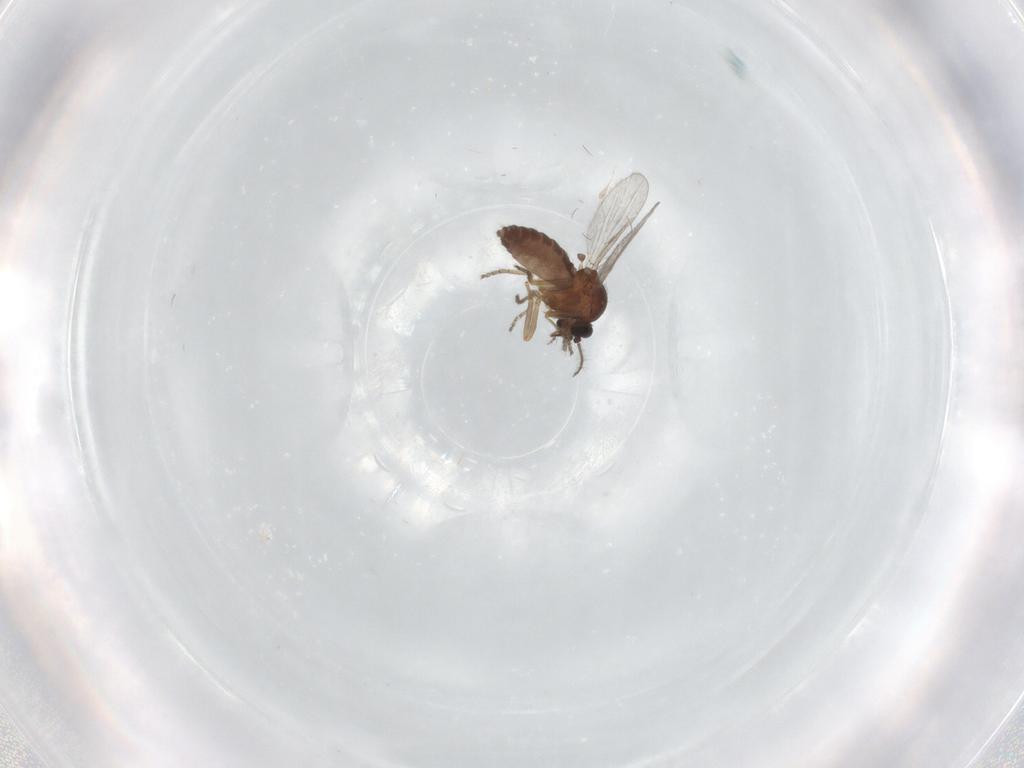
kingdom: Animalia
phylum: Arthropoda
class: Insecta
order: Diptera
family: Ceratopogonidae
